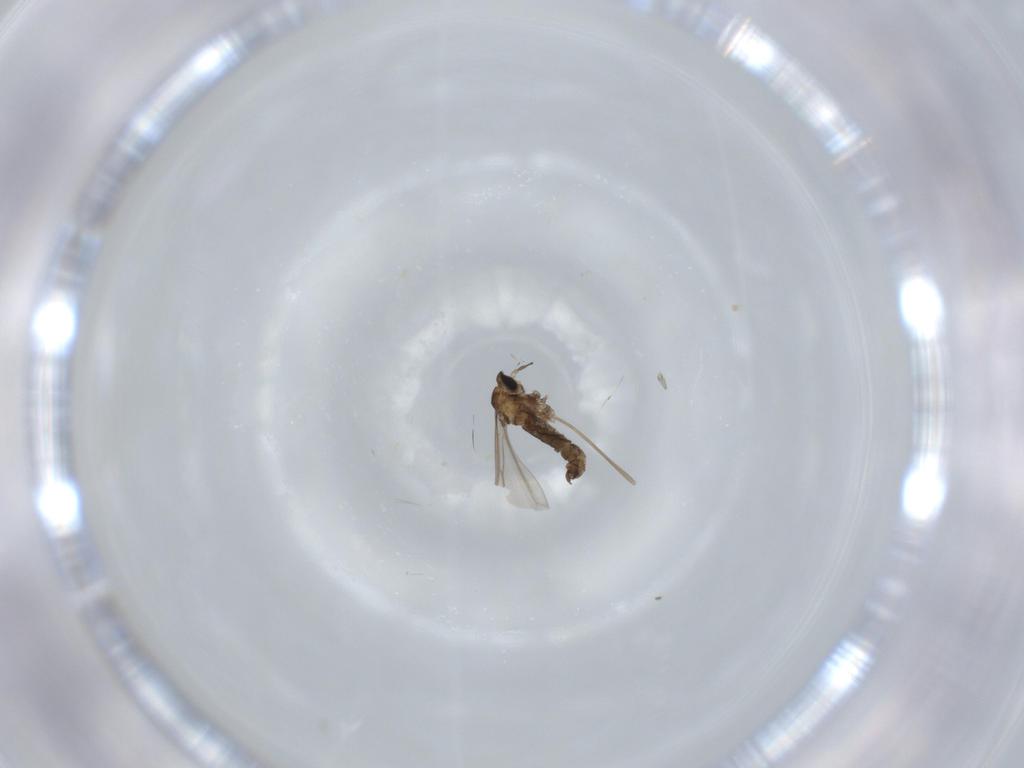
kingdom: Animalia
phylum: Arthropoda
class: Insecta
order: Diptera
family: Cecidomyiidae
